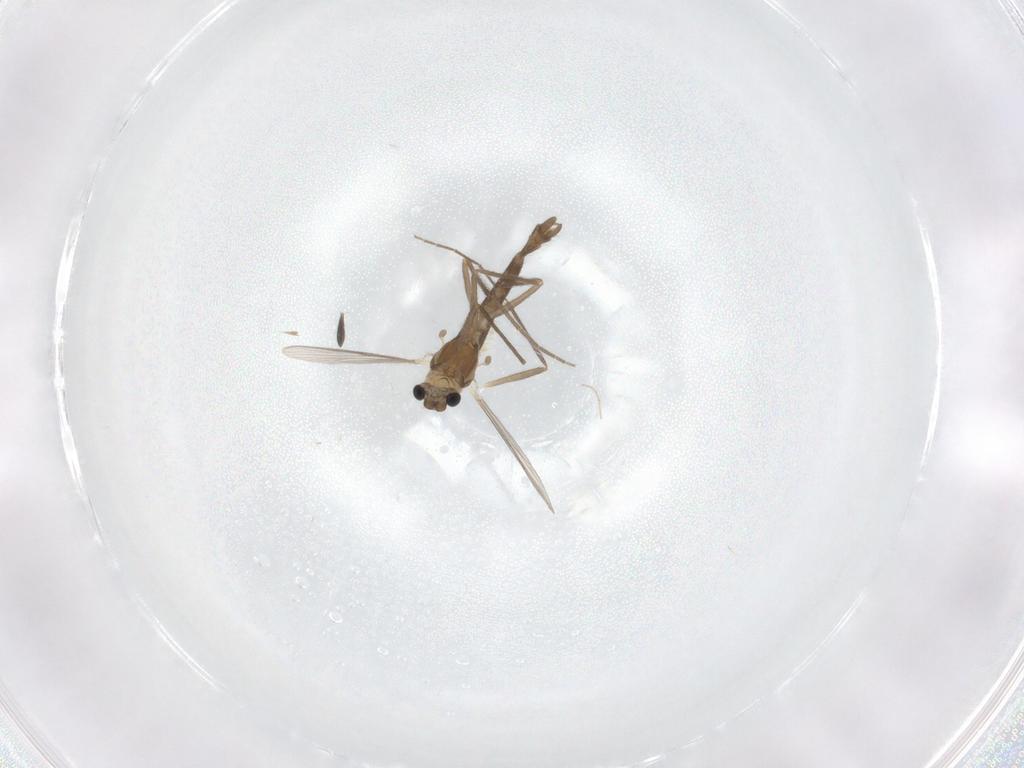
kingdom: Animalia
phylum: Arthropoda
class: Insecta
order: Diptera
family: Chironomidae
